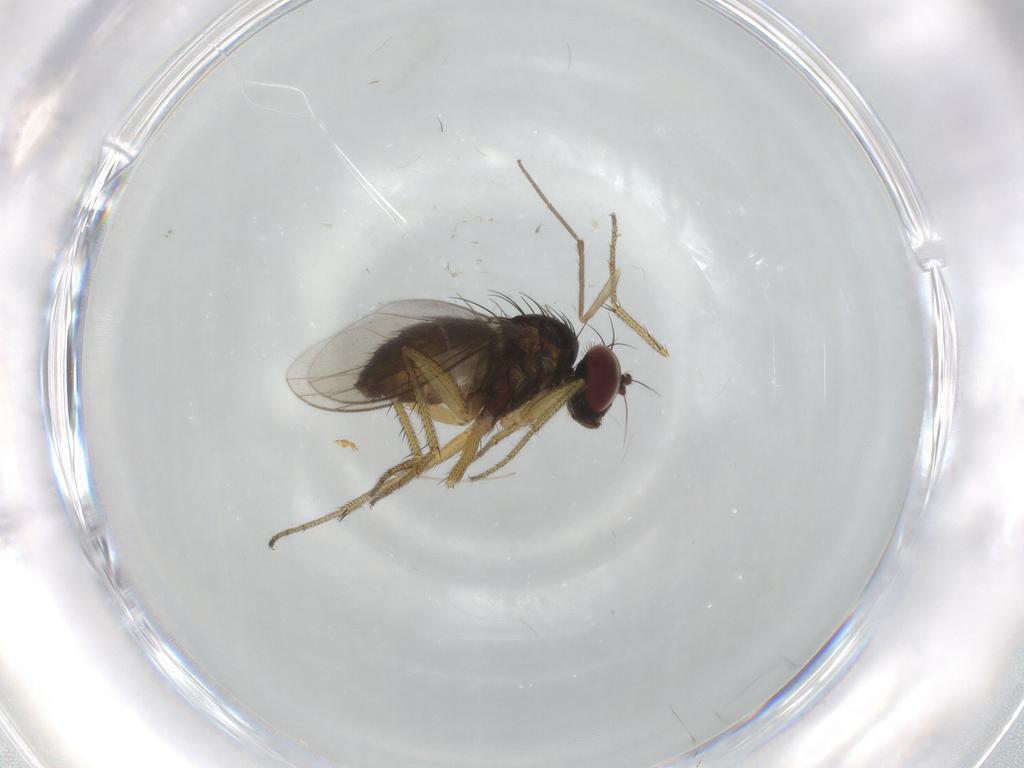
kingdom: Animalia
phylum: Arthropoda
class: Insecta
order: Diptera
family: Chironomidae
